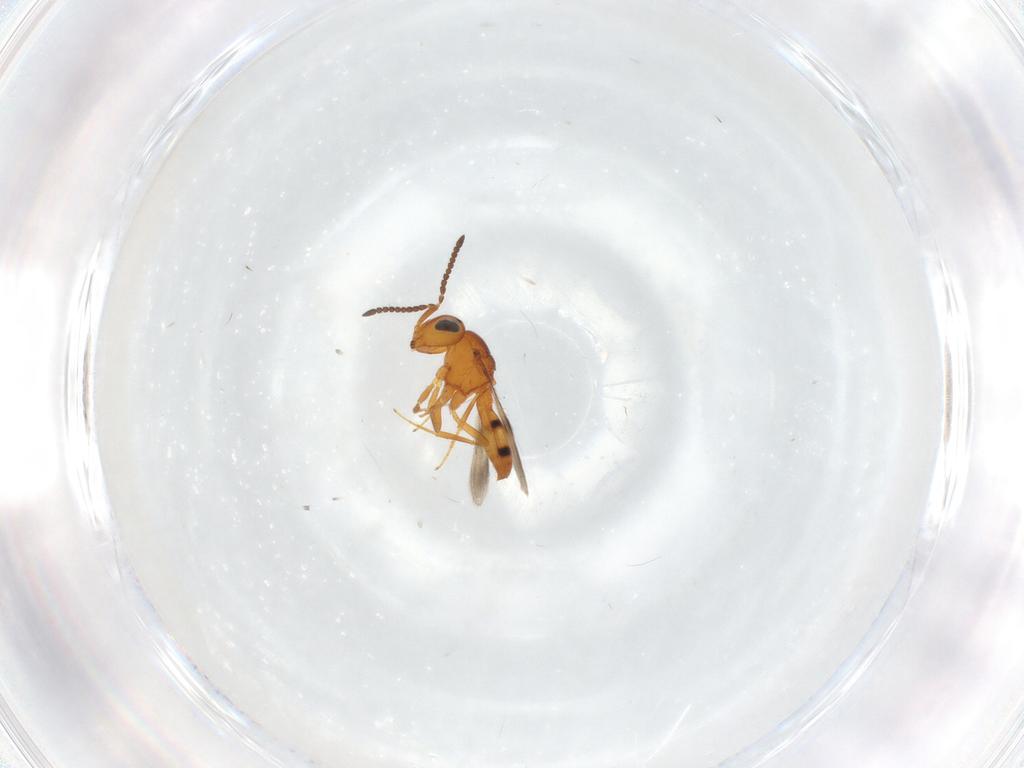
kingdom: Animalia
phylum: Arthropoda
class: Insecta
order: Hymenoptera
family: Scelionidae
